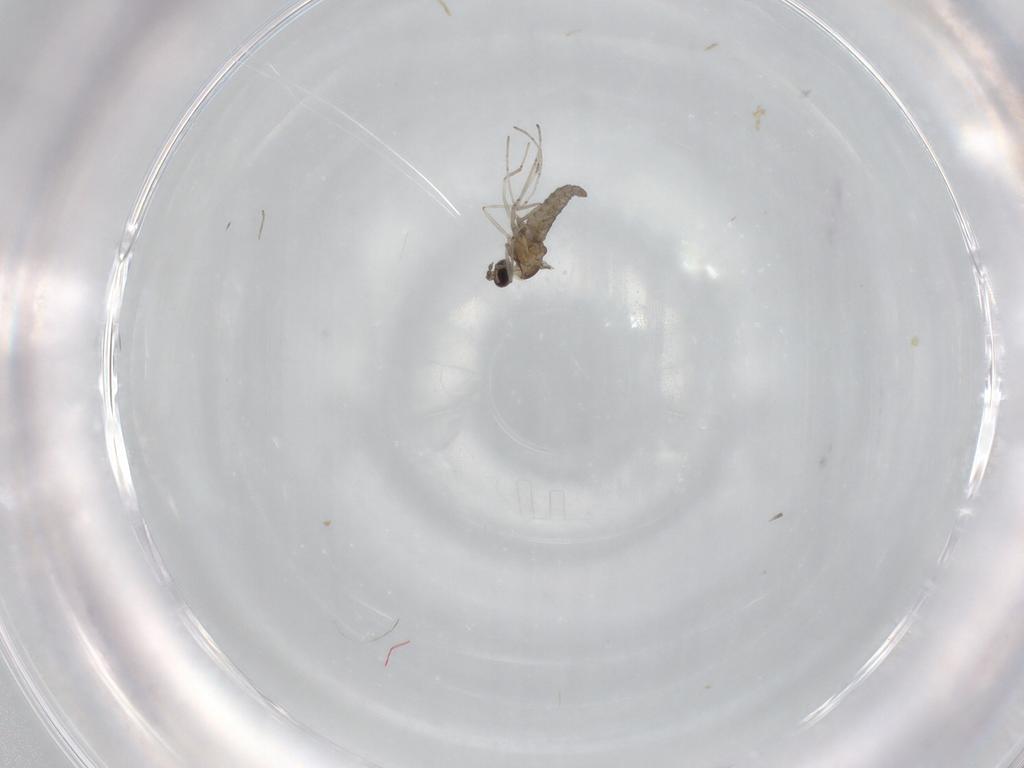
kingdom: Animalia
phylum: Arthropoda
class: Insecta
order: Diptera
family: Cecidomyiidae
